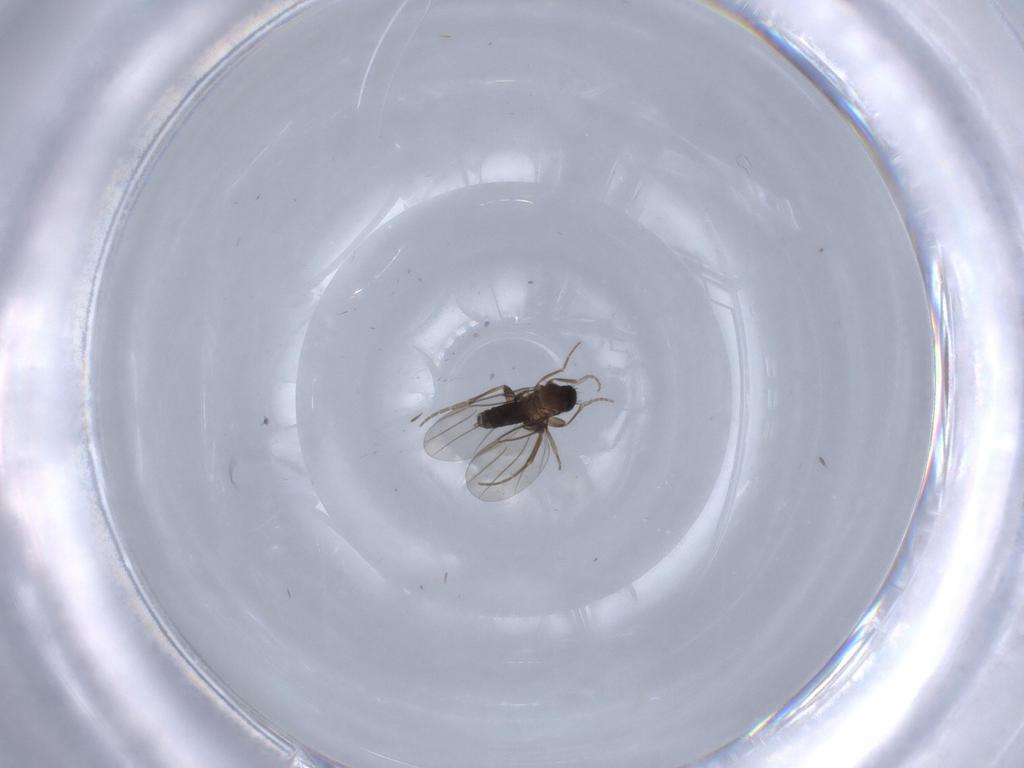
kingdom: Animalia
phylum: Arthropoda
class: Insecta
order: Diptera
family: Phoridae
